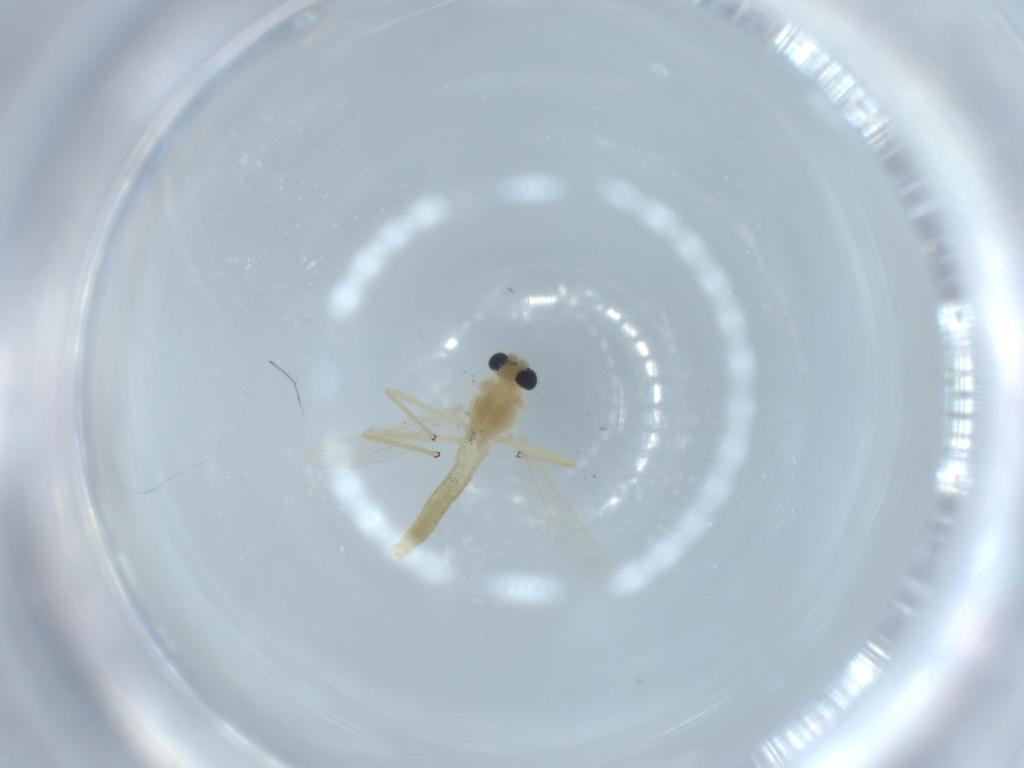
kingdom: Animalia
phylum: Arthropoda
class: Insecta
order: Diptera
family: Chironomidae
